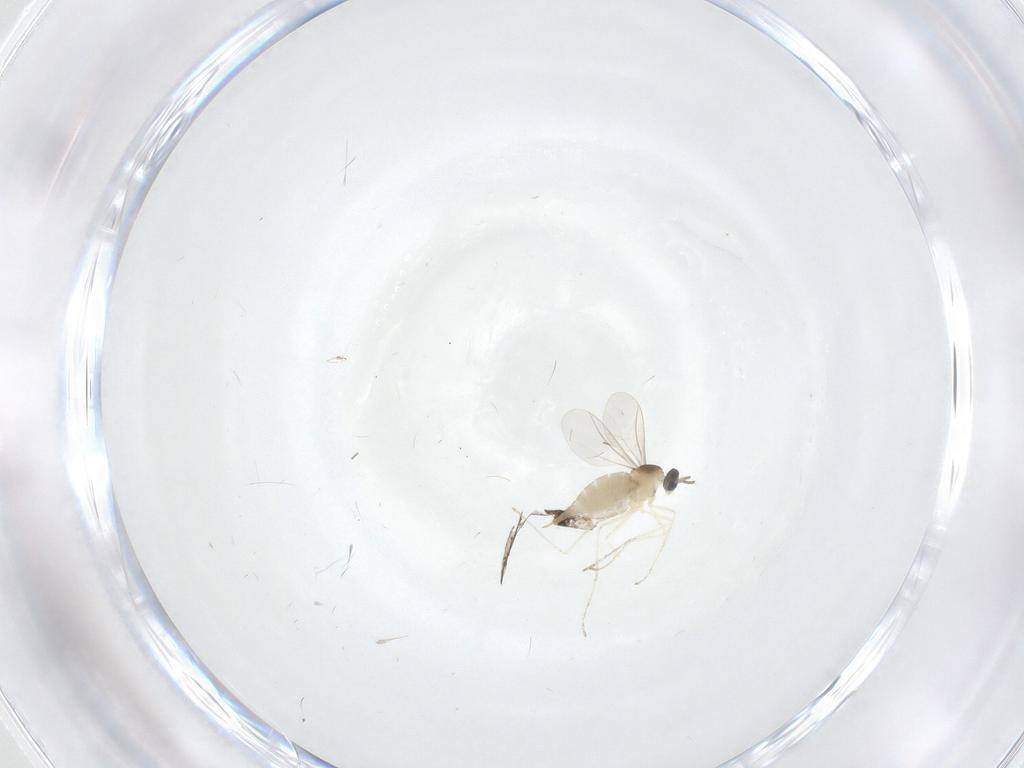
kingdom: Animalia
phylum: Arthropoda
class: Insecta
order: Diptera
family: Cecidomyiidae
